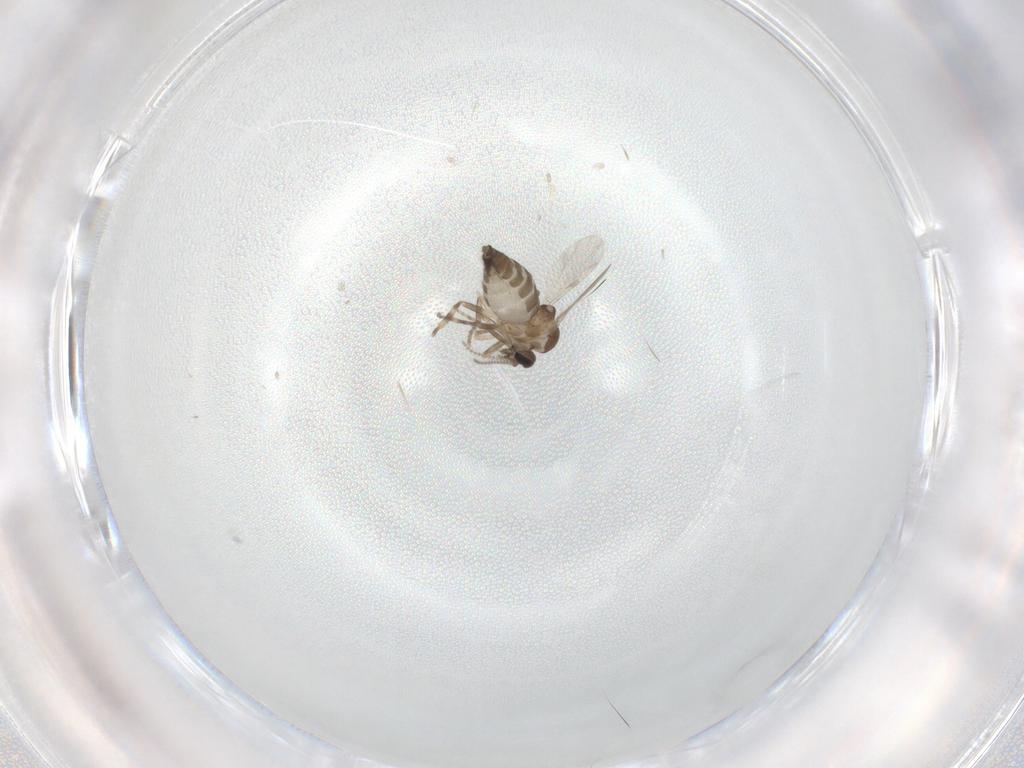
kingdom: Animalia
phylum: Arthropoda
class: Insecta
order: Diptera
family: Ceratopogonidae
